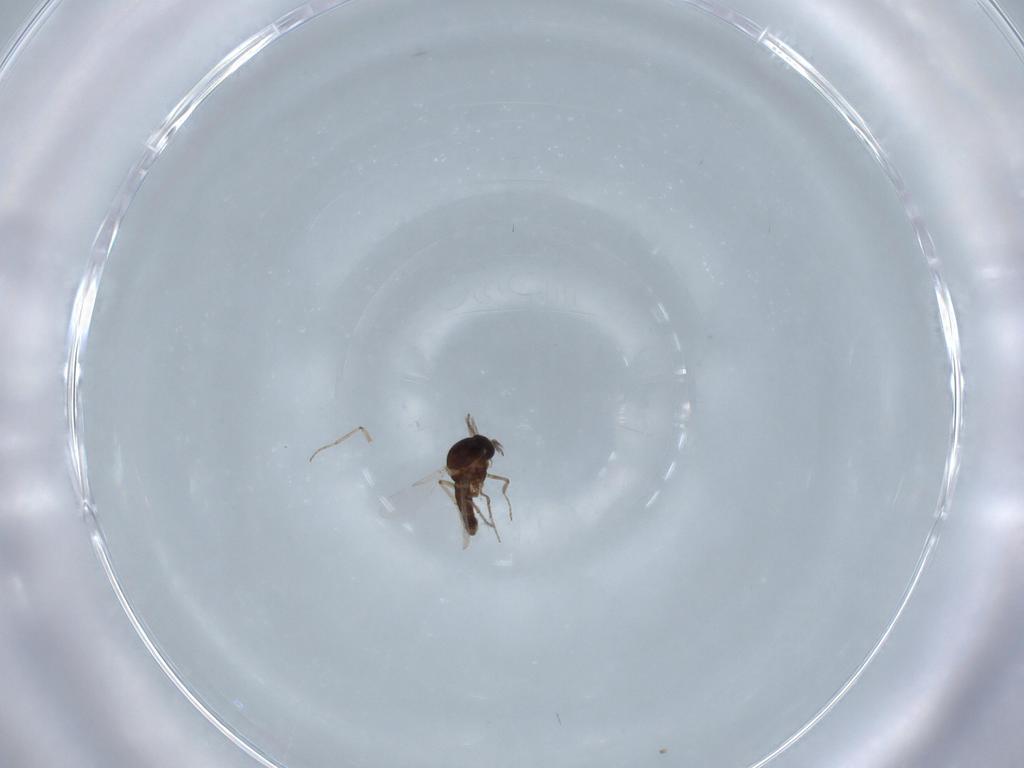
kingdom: Animalia
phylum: Arthropoda
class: Insecta
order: Diptera
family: Ceratopogonidae
